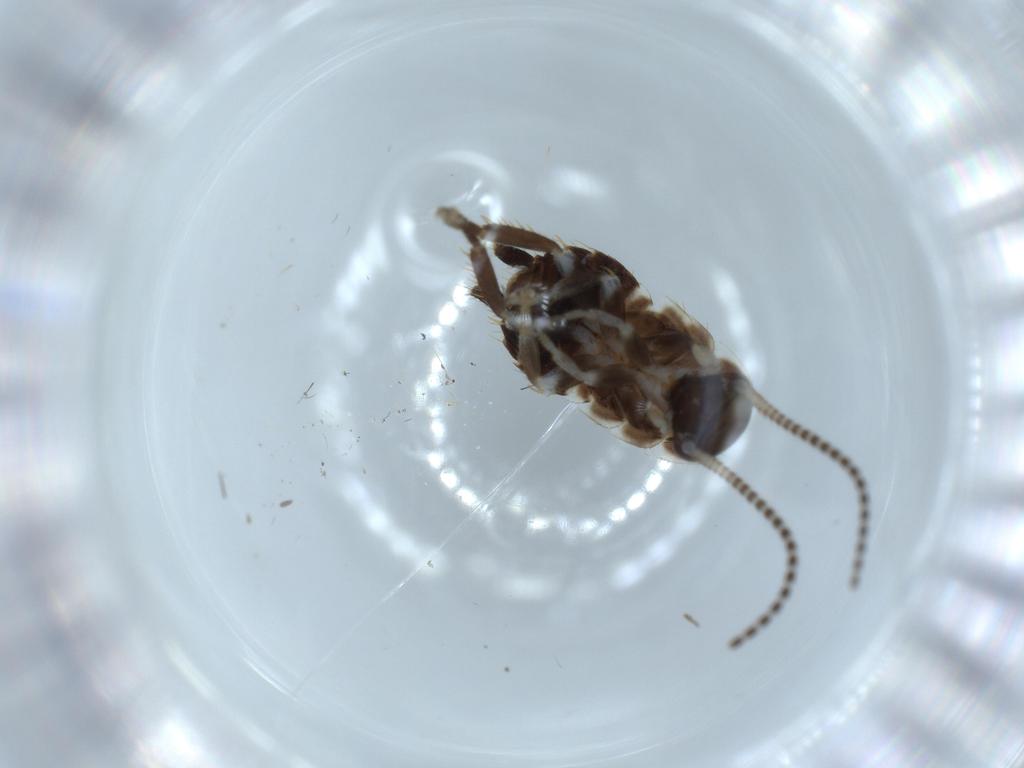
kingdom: Animalia
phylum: Arthropoda
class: Insecta
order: Blattodea
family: Ectobiidae
